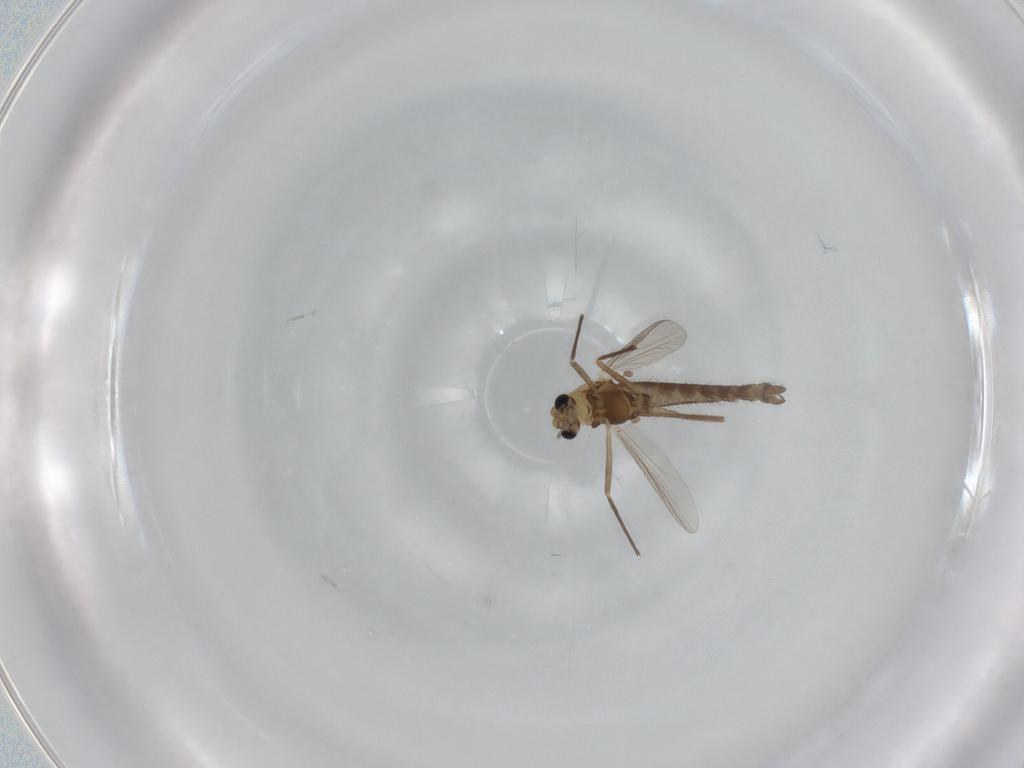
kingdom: Animalia
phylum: Arthropoda
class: Insecta
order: Diptera
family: Chironomidae
